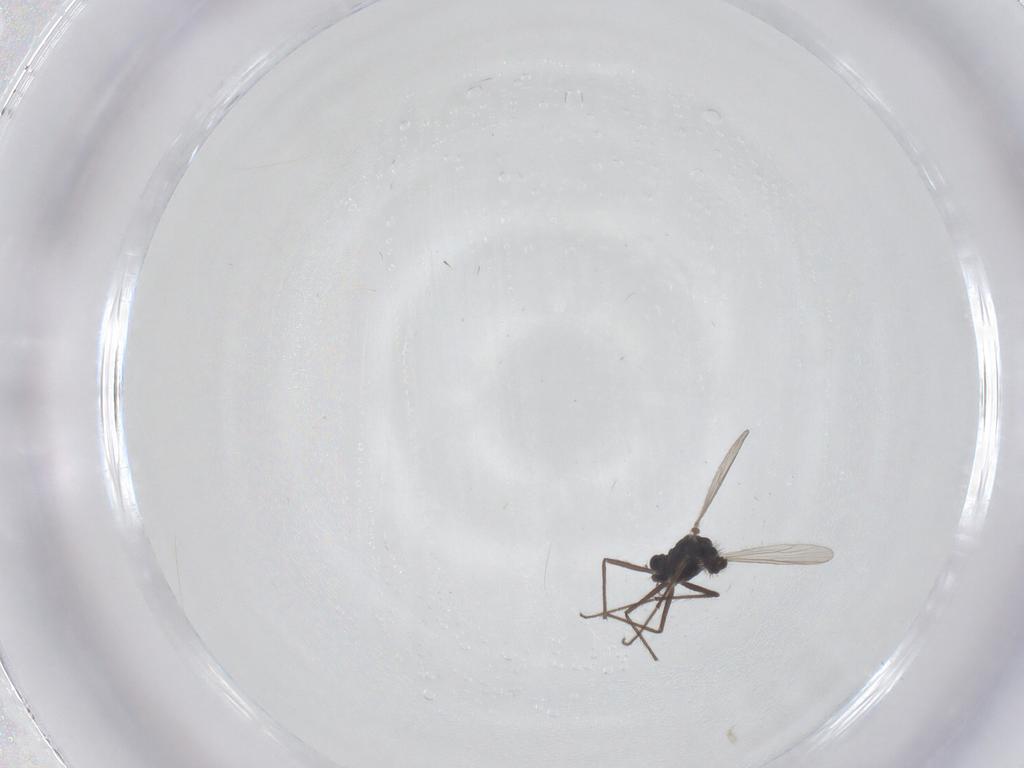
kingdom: Animalia
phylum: Arthropoda
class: Insecta
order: Diptera
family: Chironomidae
